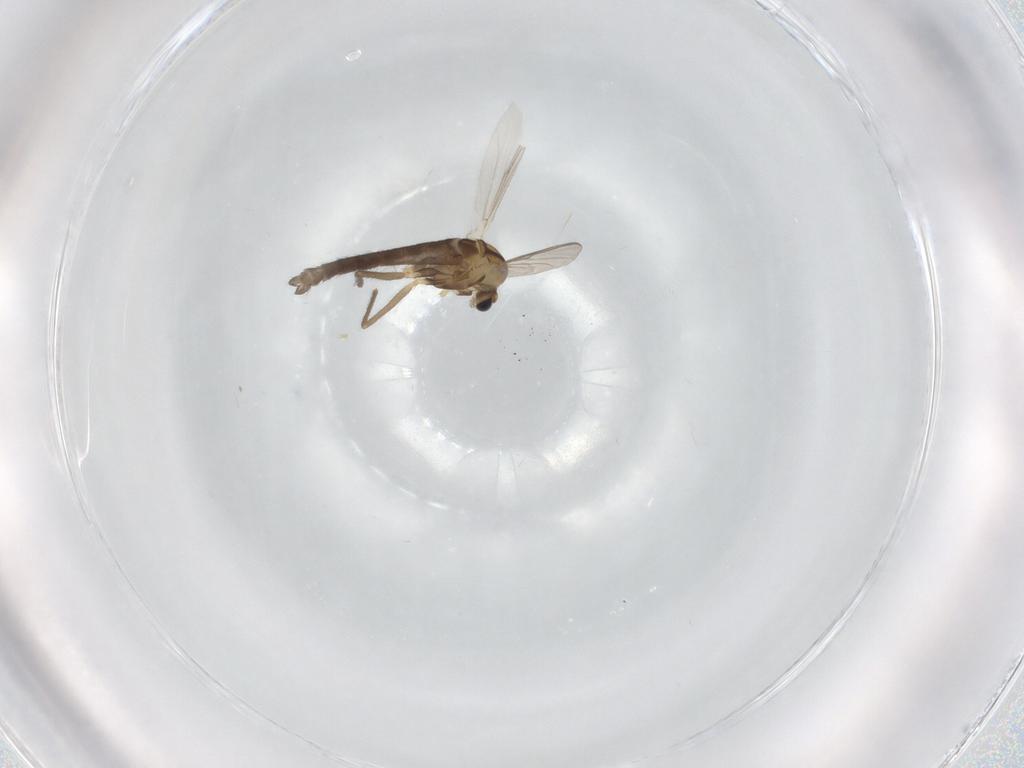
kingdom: Animalia
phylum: Arthropoda
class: Insecta
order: Diptera
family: Chironomidae
